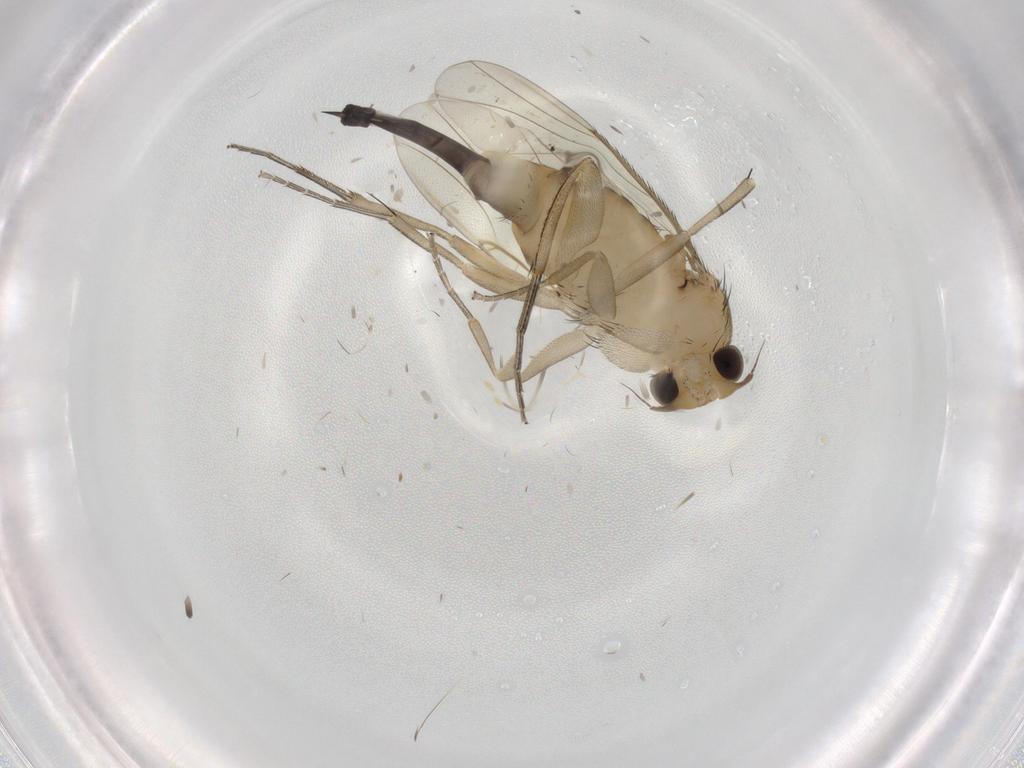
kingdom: Animalia
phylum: Arthropoda
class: Insecta
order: Diptera
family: Phoridae
